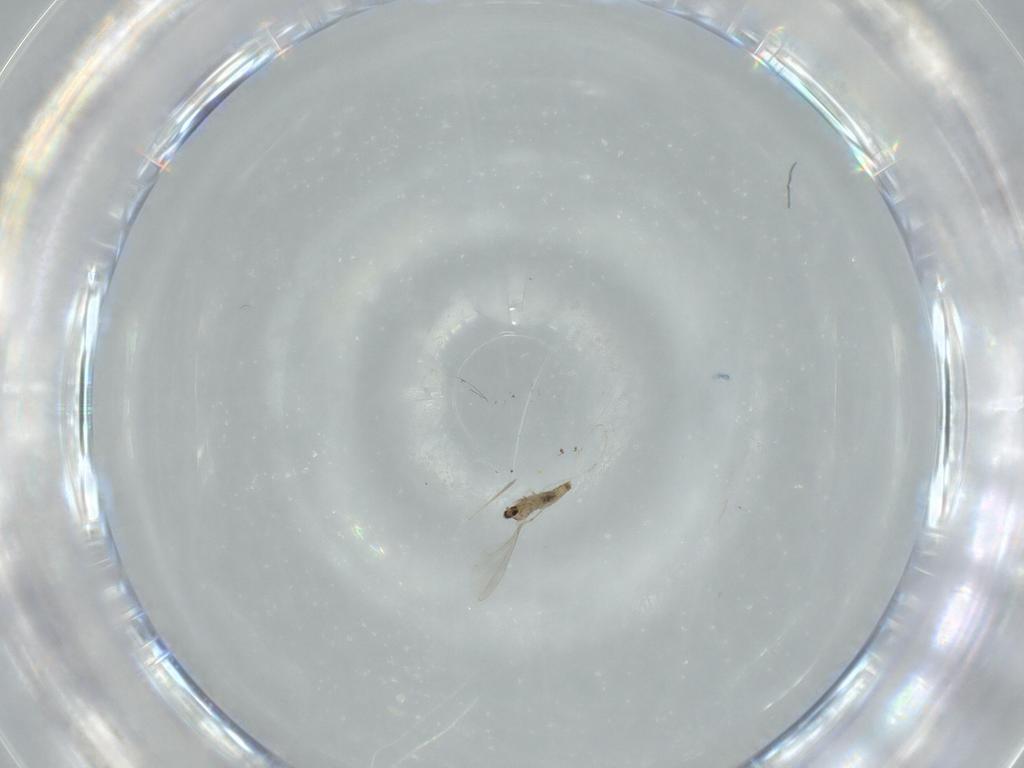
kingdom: Animalia
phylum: Arthropoda
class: Insecta
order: Diptera
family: Cecidomyiidae
